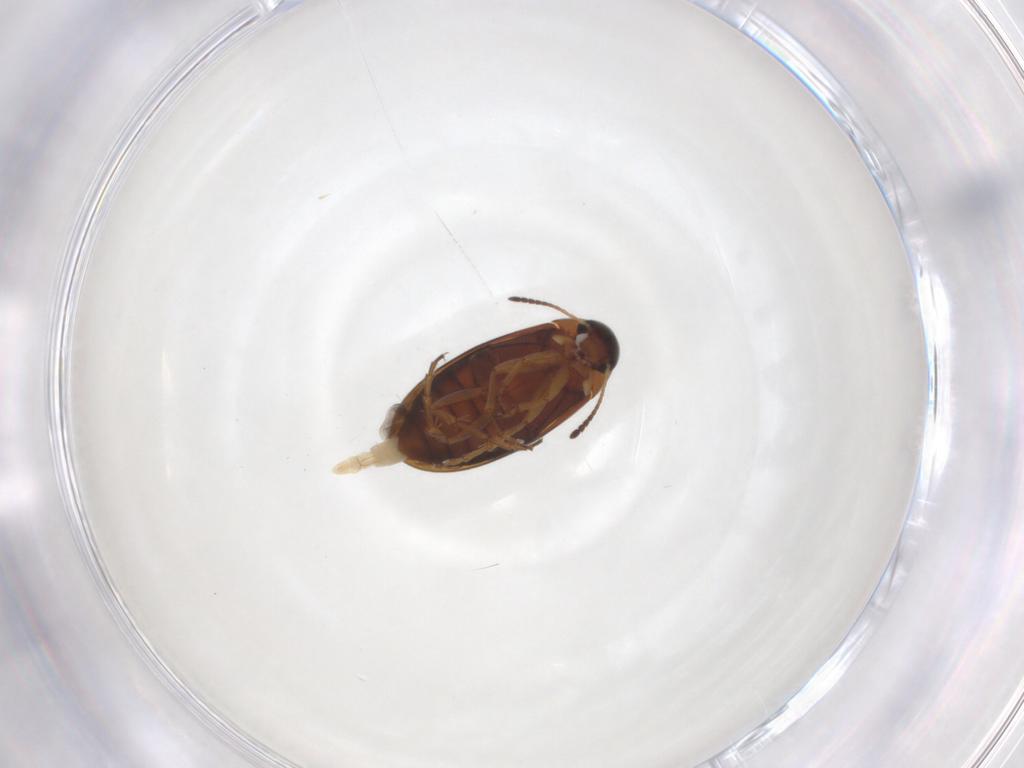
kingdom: Animalia
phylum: Arthropoda
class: Insecta
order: Coleoptera
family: Scraptiidae
